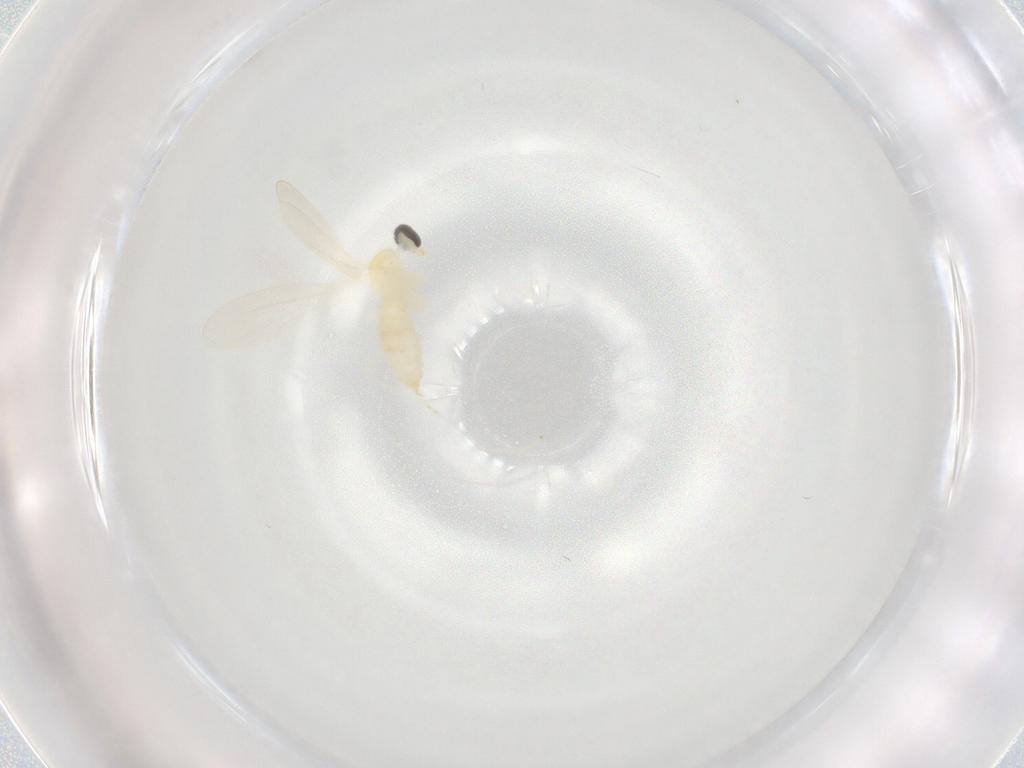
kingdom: Animalia
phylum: Arthropoda
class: Insecta
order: Diptera
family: Cecidomyiidae
